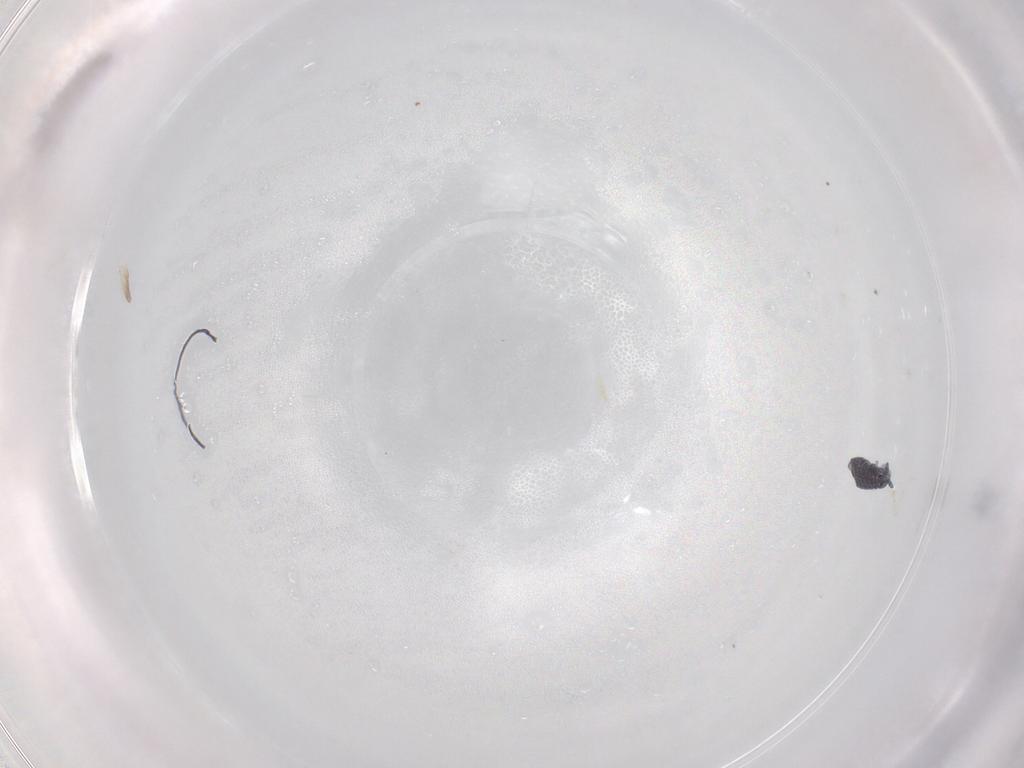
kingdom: Animalia
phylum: Arthropoda
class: Collembola
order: Poduromorpha
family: Hypogastruridae
